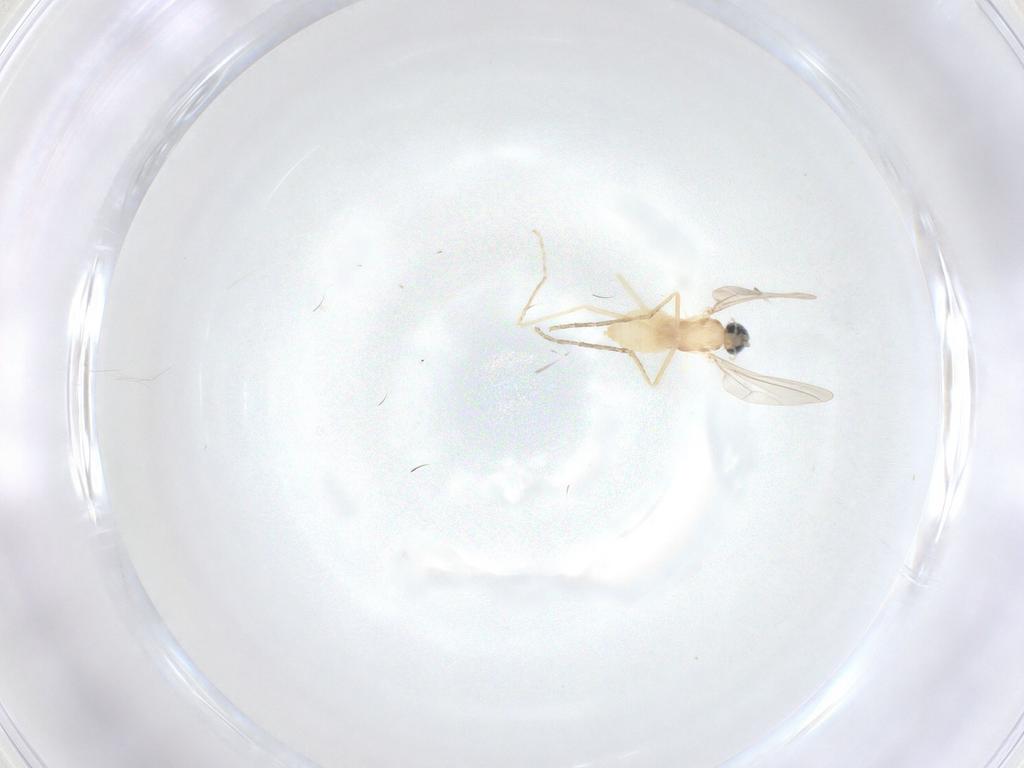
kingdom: Animalia
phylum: Arthropoda
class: Insecta
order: Diptera
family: Cecidomyiidae
